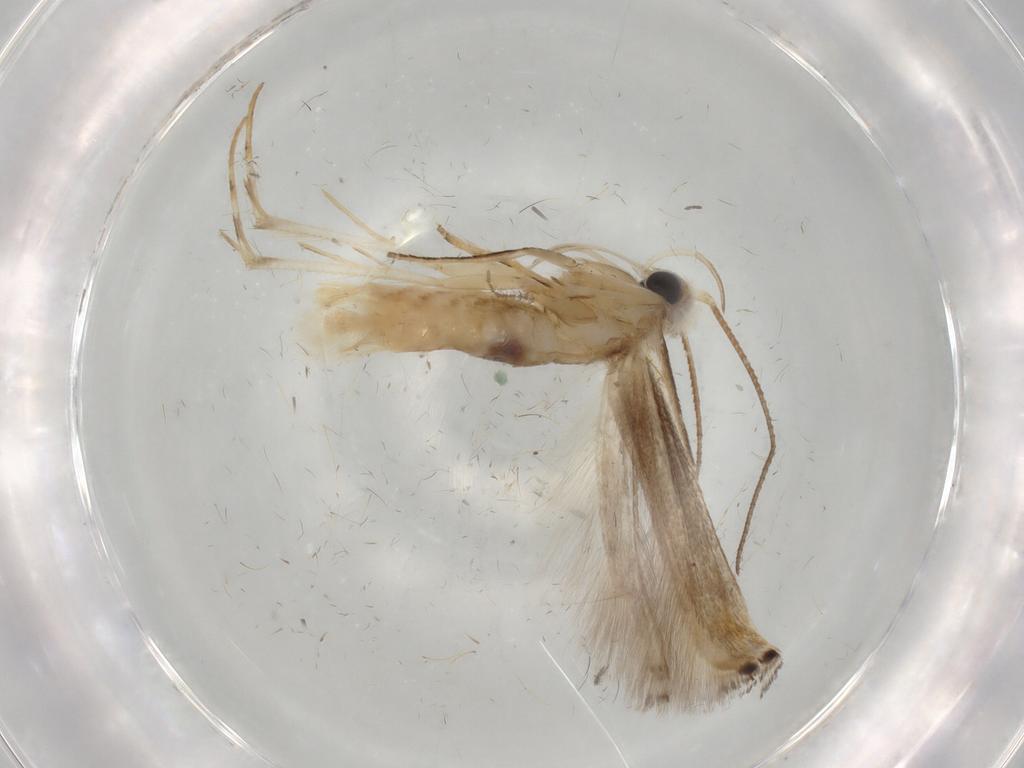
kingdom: Animalia
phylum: Arthropoda
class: Insecta
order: Lepidoptera
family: Gelechiidae
